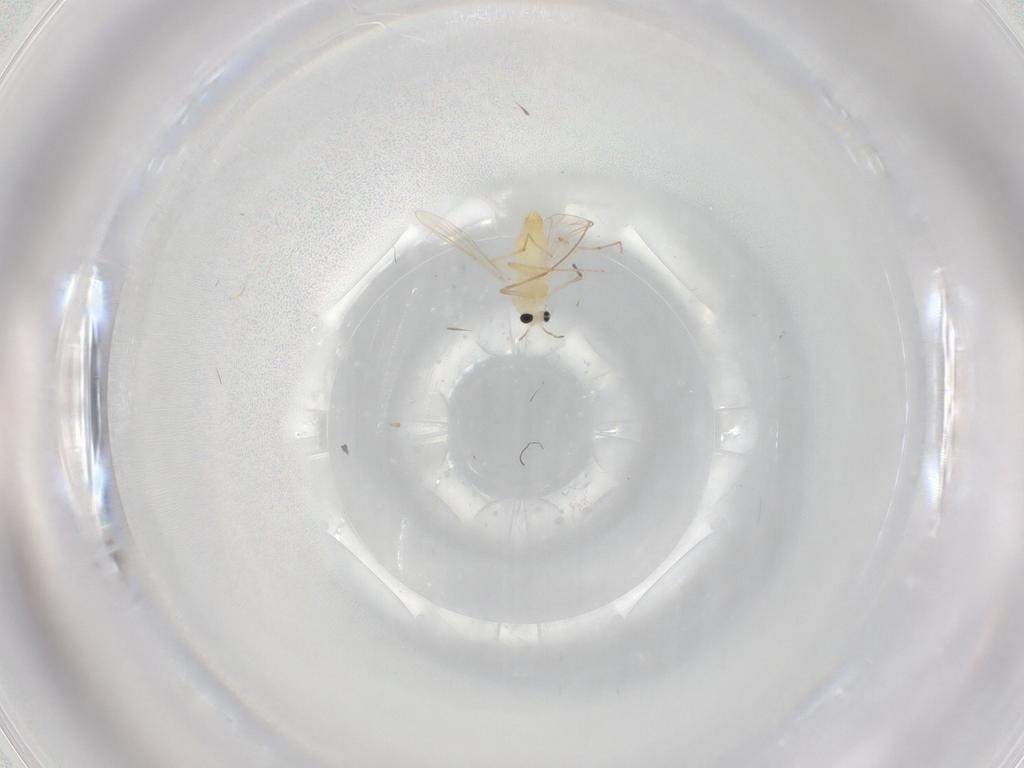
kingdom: Animalia
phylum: Arthropoda
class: Insecta
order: Diptera
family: Chironomidae
